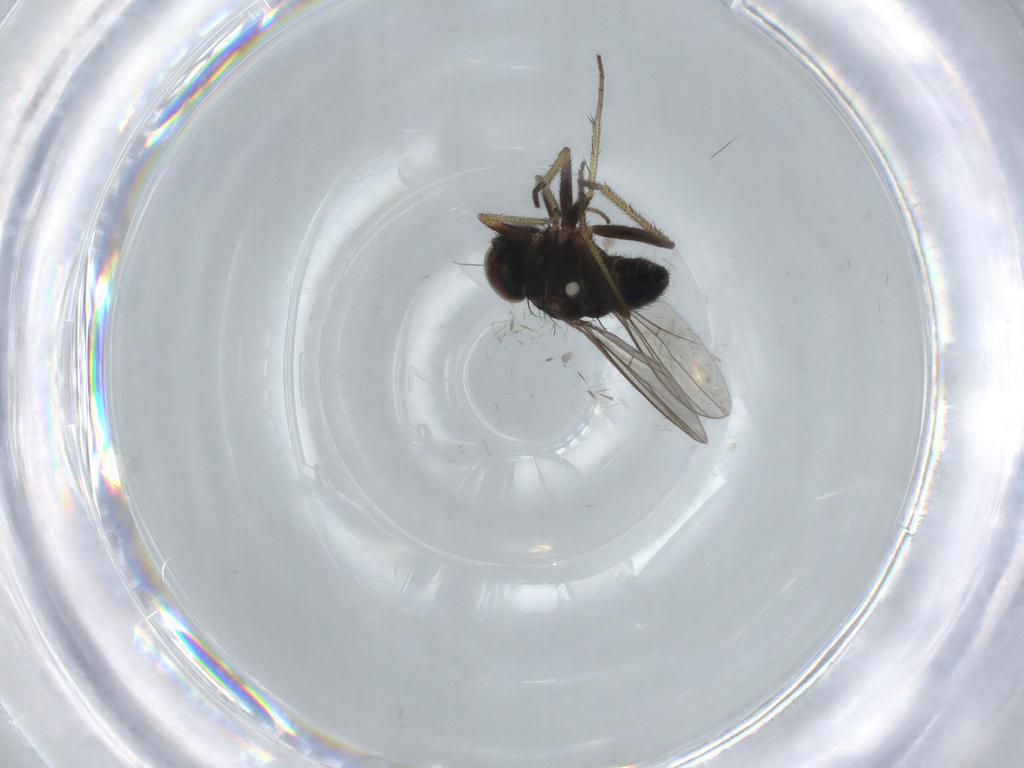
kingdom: Animalia
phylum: Arthropoda
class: Insecta
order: Diptera
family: Dolichopodidae
